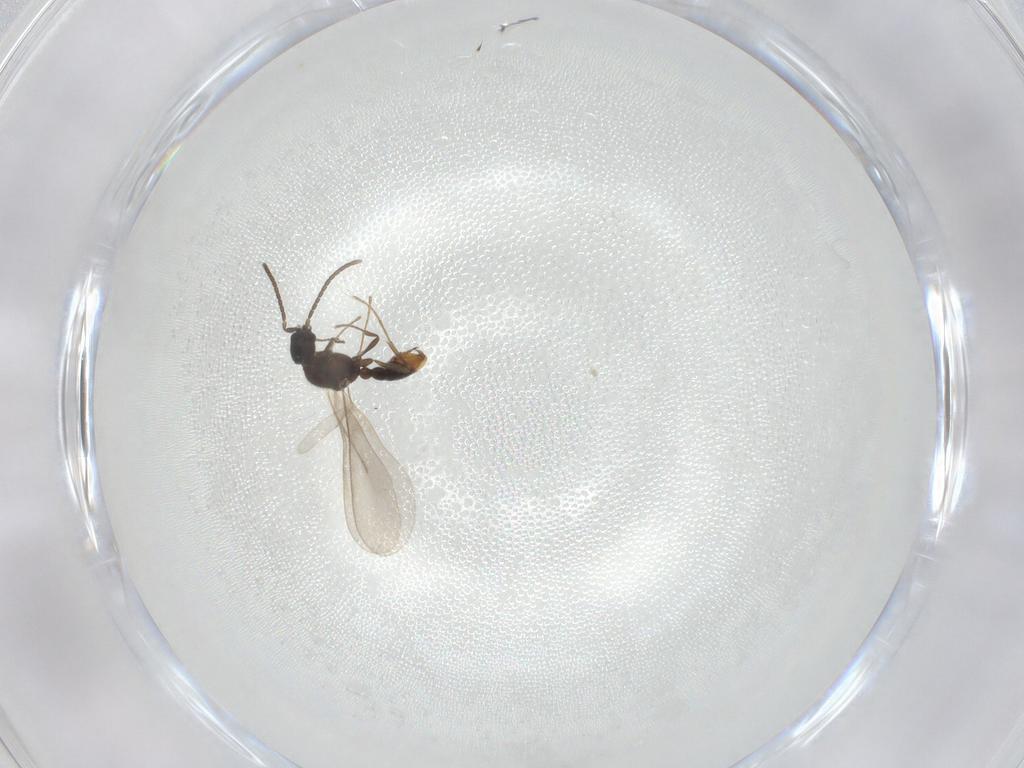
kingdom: Animalia
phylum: Arthropoda
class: Insecta
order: Hymenoptera
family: Formicidae
